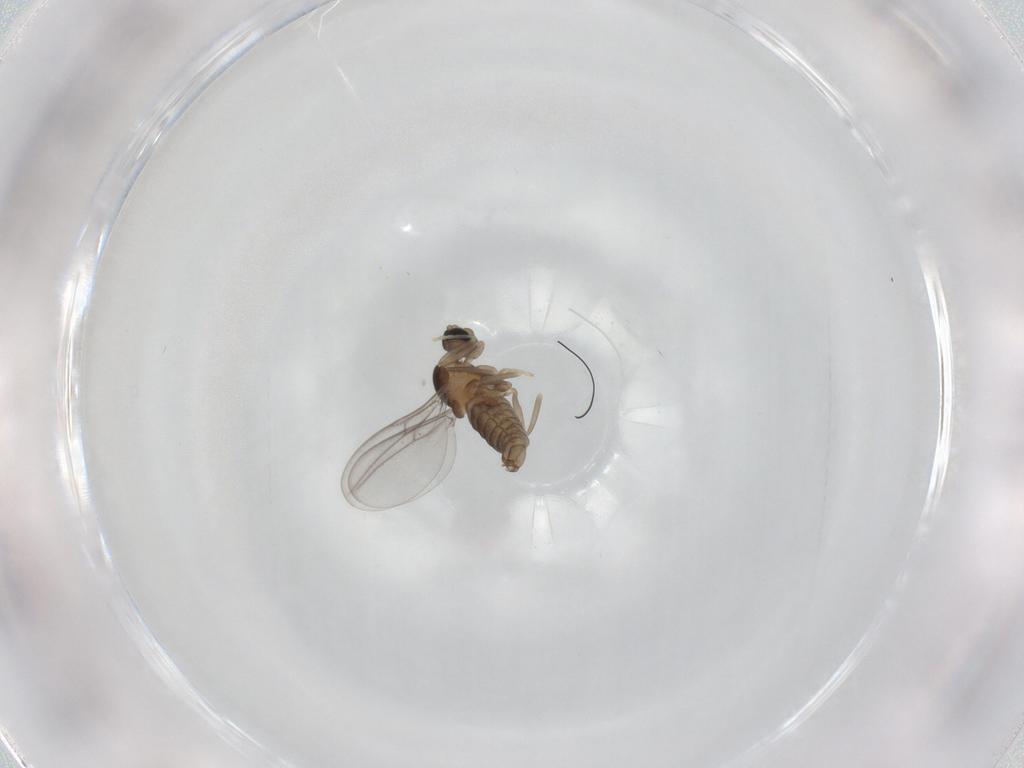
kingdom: Animalia
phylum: Arthropoda
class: Insecta
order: Diptera
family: Cecidomyiidae
